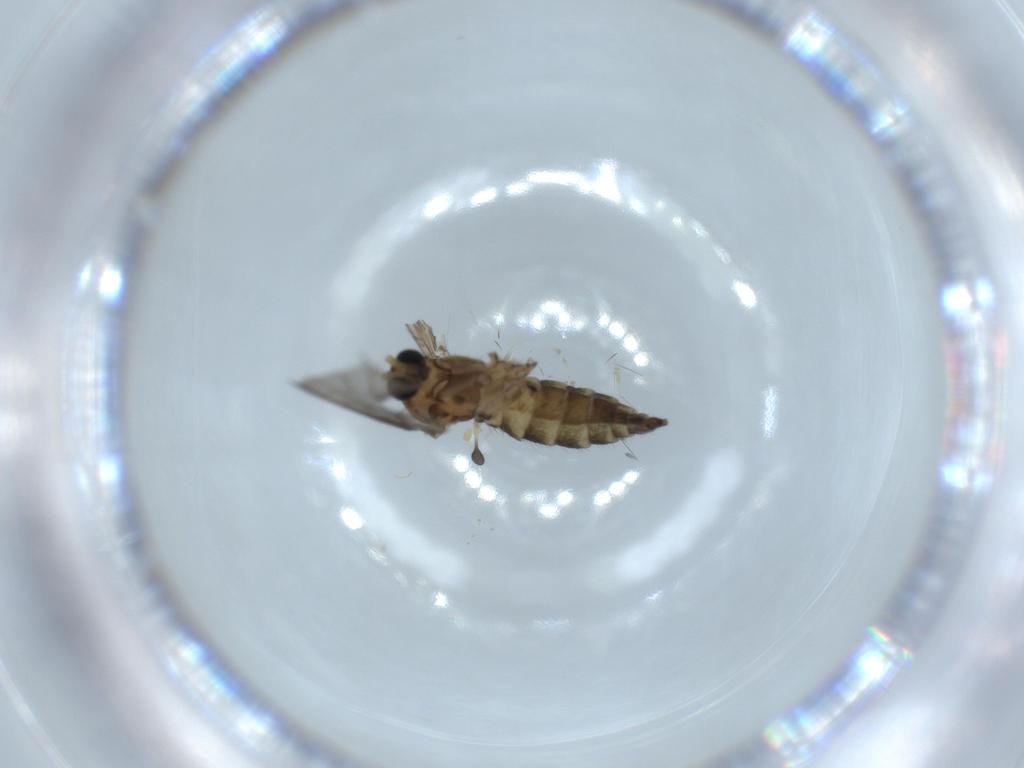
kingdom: Animalia
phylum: Arthropoda
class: Insecta
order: Diptera
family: Sciaridae
